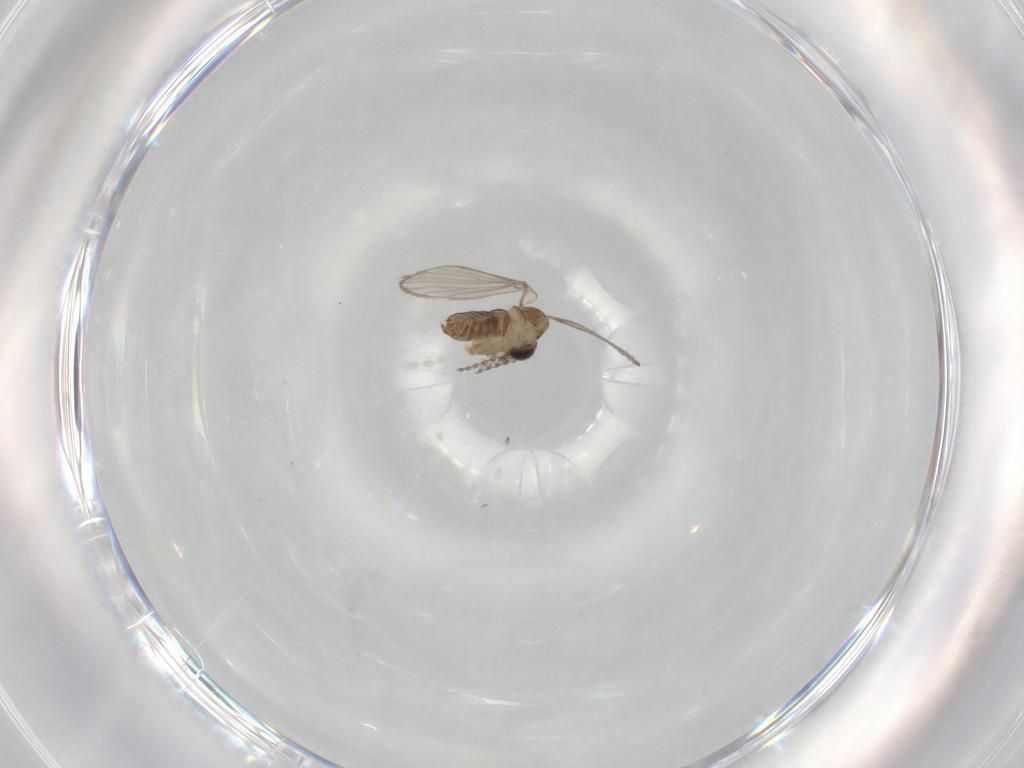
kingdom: Animalia
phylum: Arthropoda
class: Insecta
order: Diptera
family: Psychodidae
